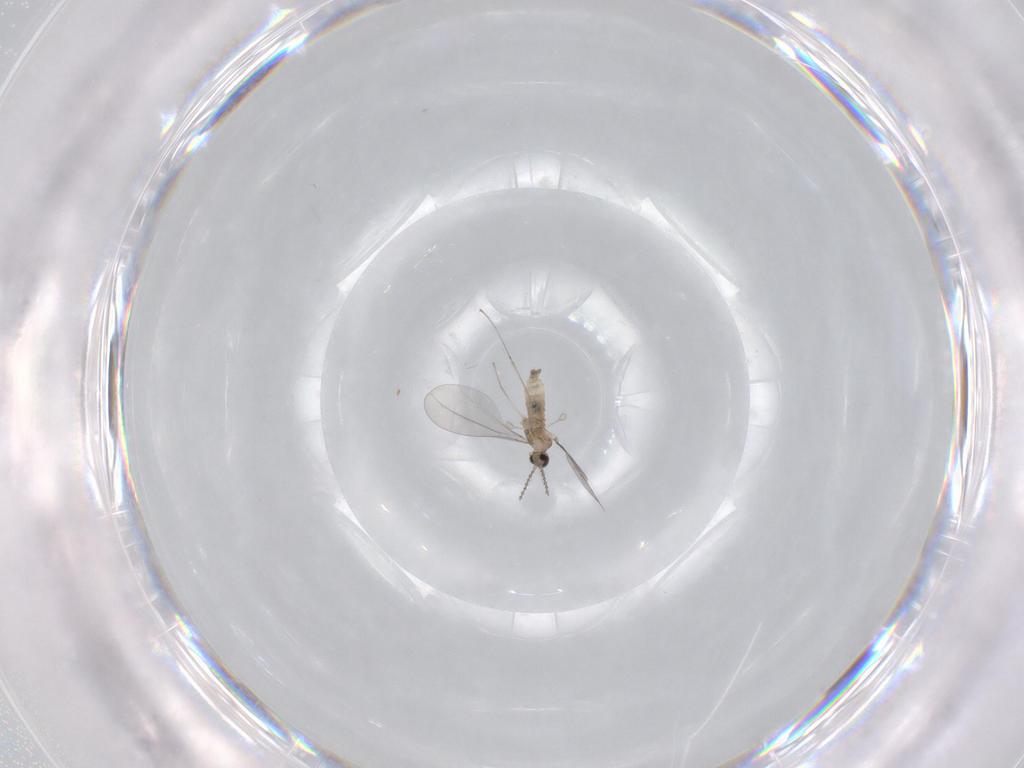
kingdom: Animalia
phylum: Arthropoda
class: Insecta
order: Diptera
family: Cecidomyiidae
